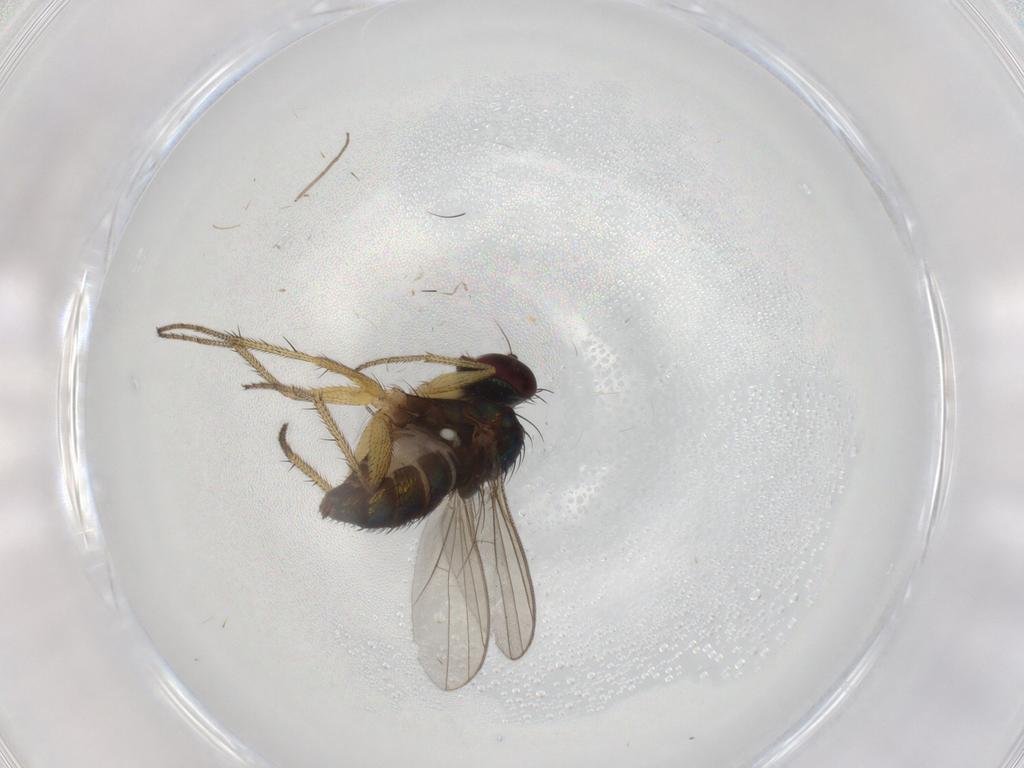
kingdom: Animalia
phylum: Arthropoda
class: Insecta
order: Diptera
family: Chironomidae
